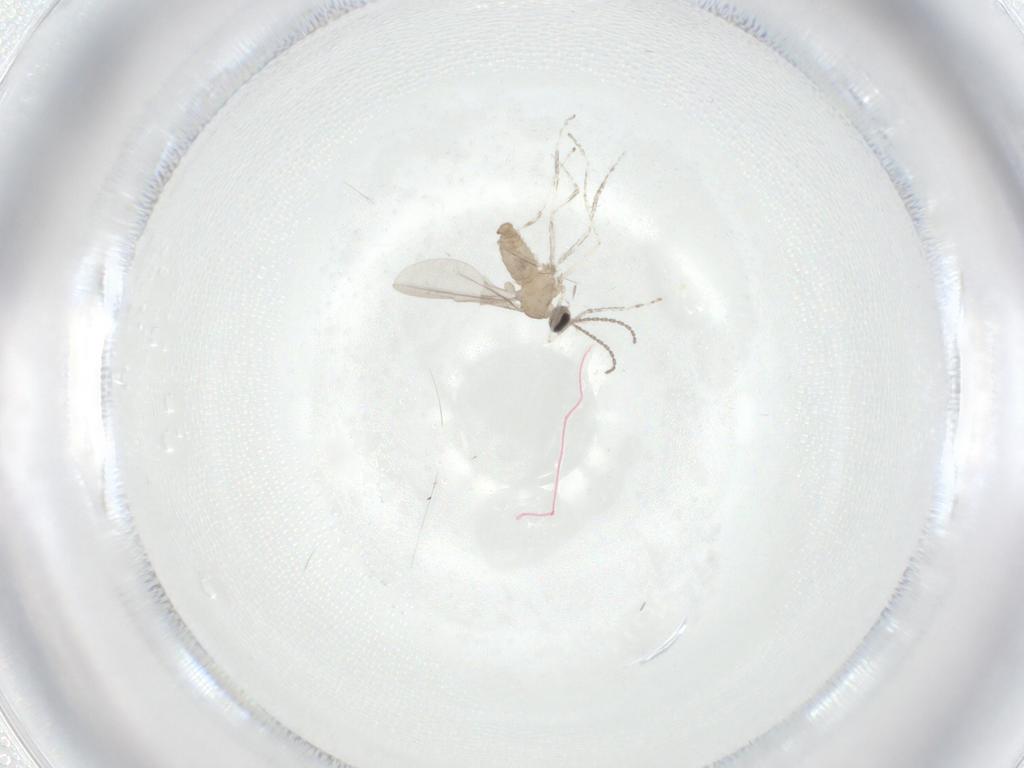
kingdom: Animalia
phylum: Arthropoda
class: Insecta
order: Diptera
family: Cecidomyiidae
